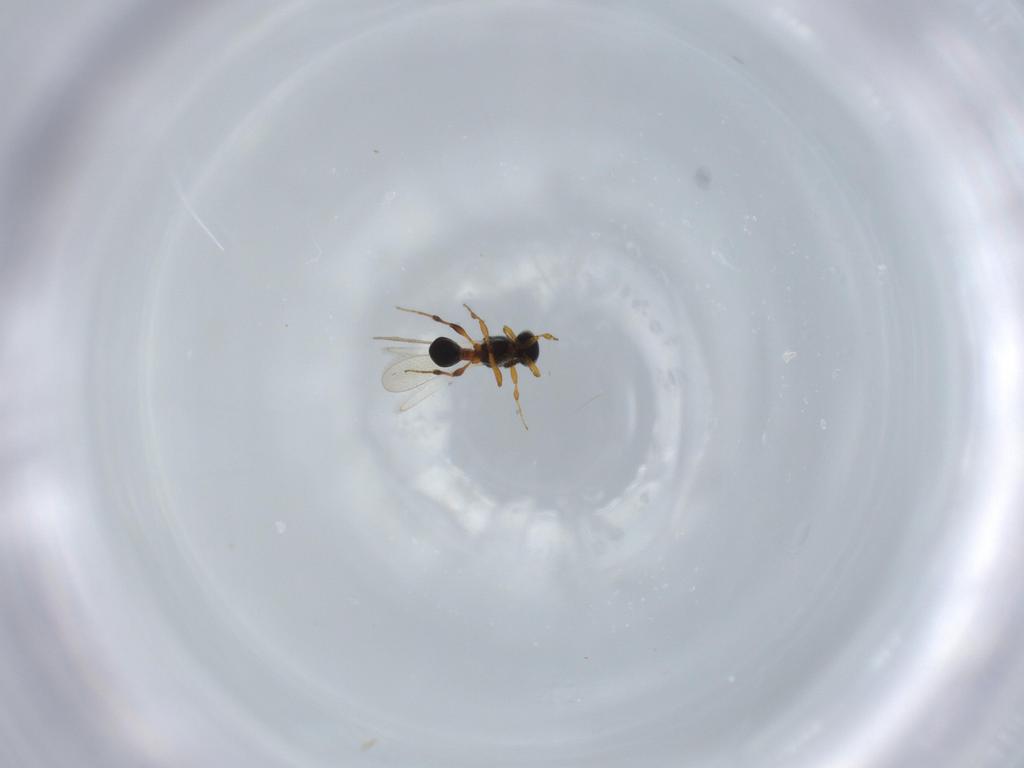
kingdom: Animalia
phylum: Arthropoda
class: Insecta
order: Hymenoptera
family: Platygastridae
